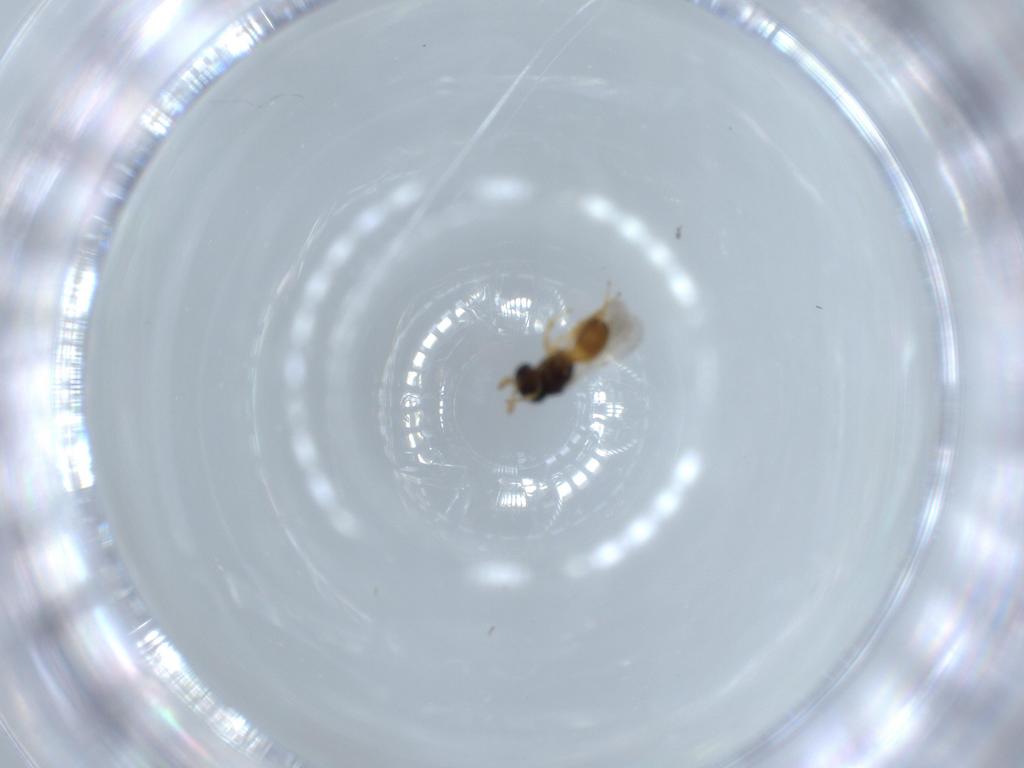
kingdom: Animalia
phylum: Arthropoda
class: Insecta
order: Hymenoptera
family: Scelionidae
